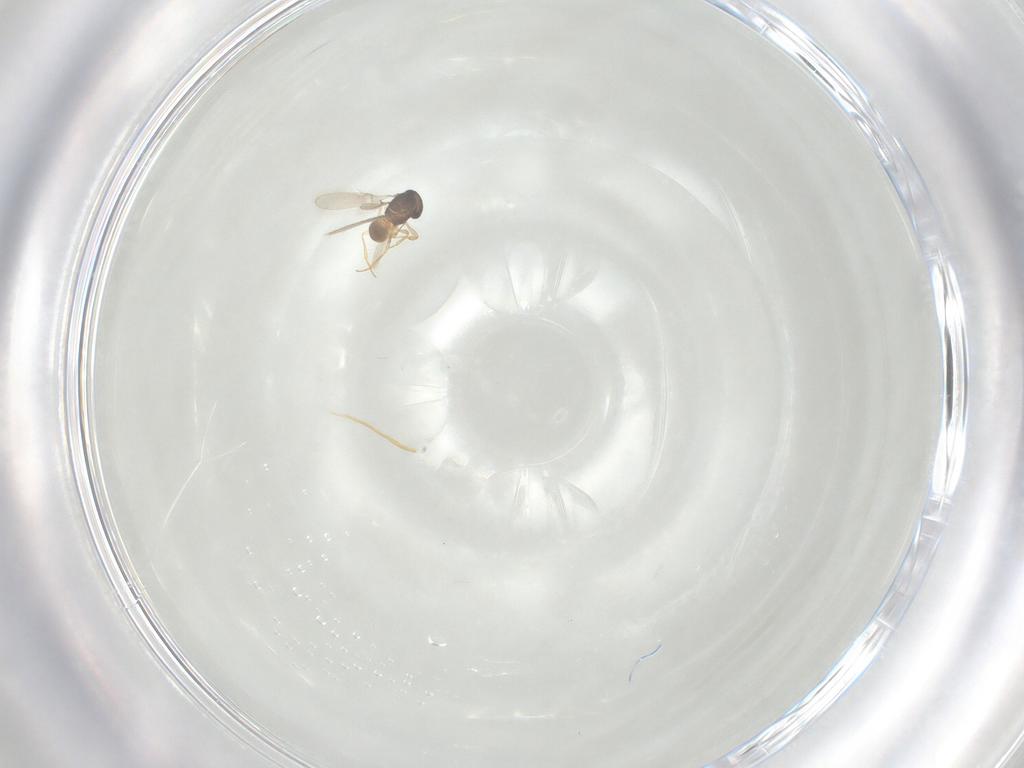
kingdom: Animalia
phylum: Arthropoda
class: Insecta
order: Hymenoptera
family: Scelionidae
